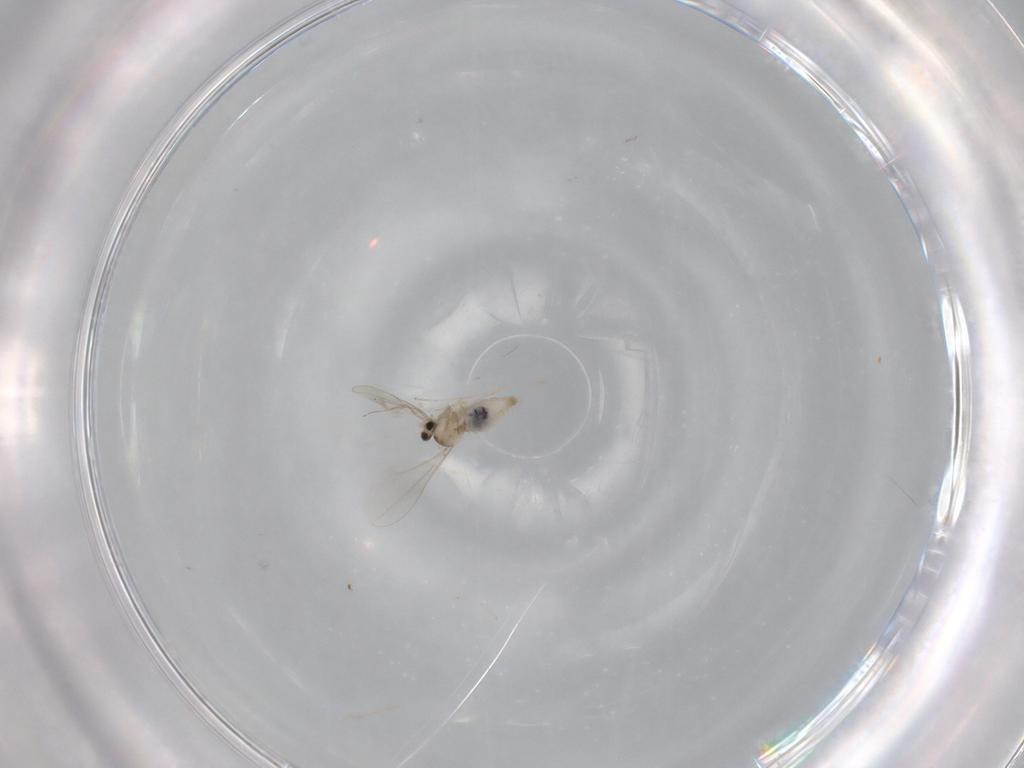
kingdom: Animalia
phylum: Arthropoda
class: Insecta
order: Diptera
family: Cecidomyiidae
